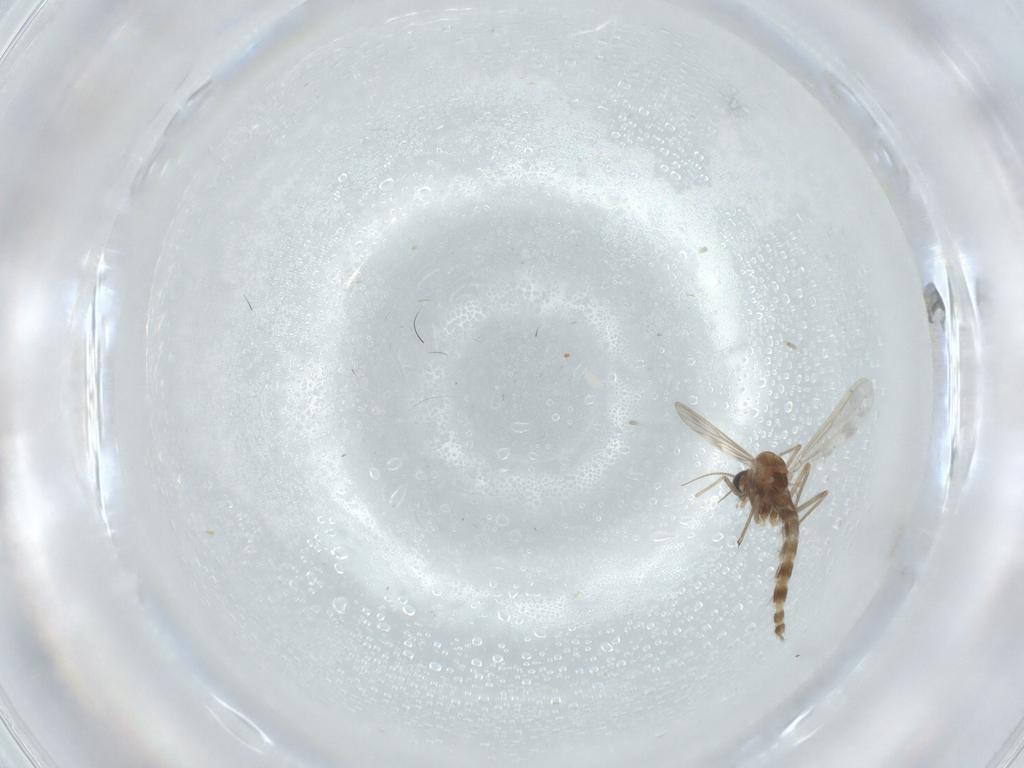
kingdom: Animalia
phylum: Arthropoda
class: Insecta
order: Diptera
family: Chironomidae
